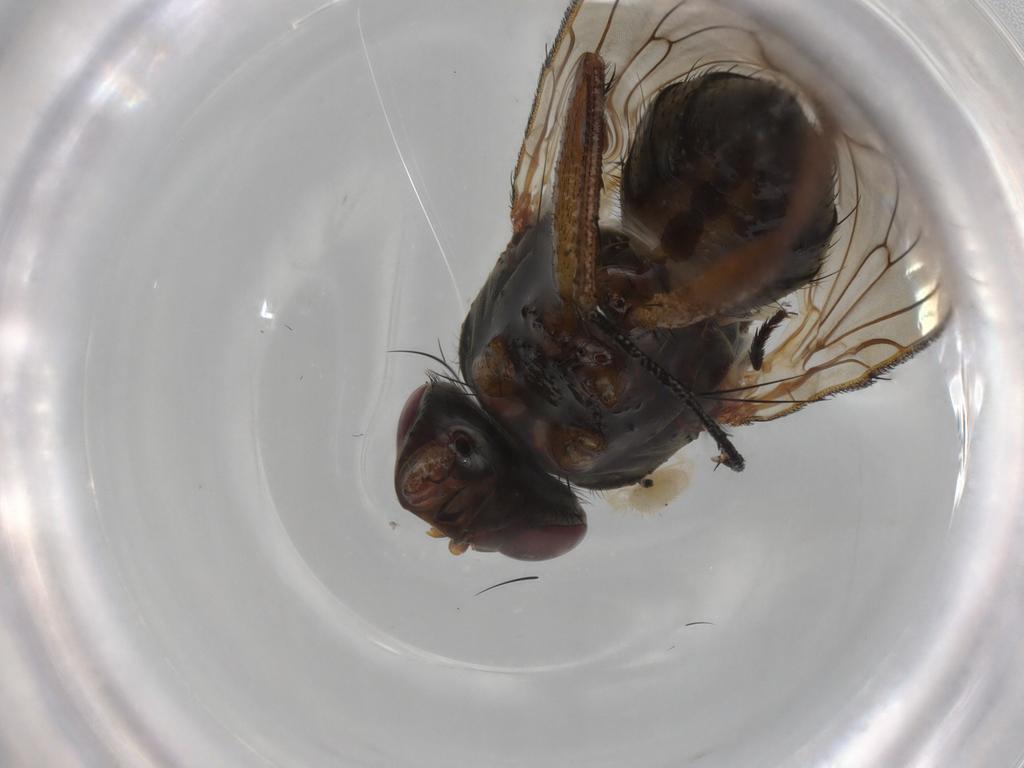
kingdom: Animalia
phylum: Arthropoda
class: Insecta
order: Diptera
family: Anthomyiidae
